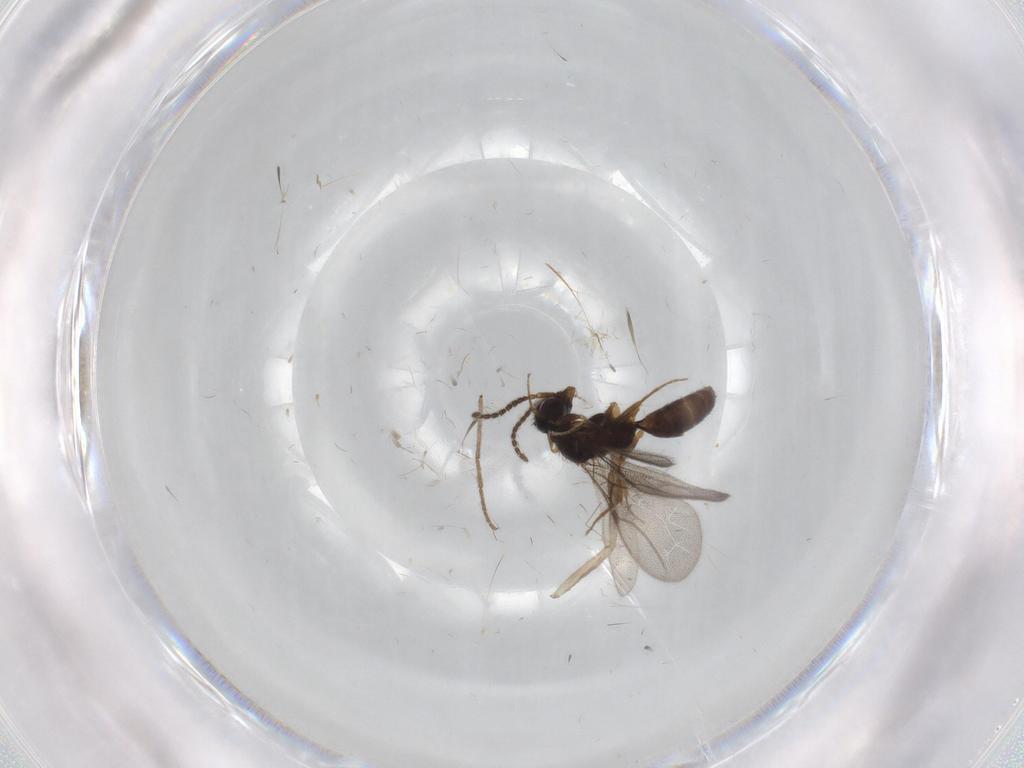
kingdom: Animalia
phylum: Arthropoda
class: Insecta
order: Hymenoptera
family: Bethylidae
